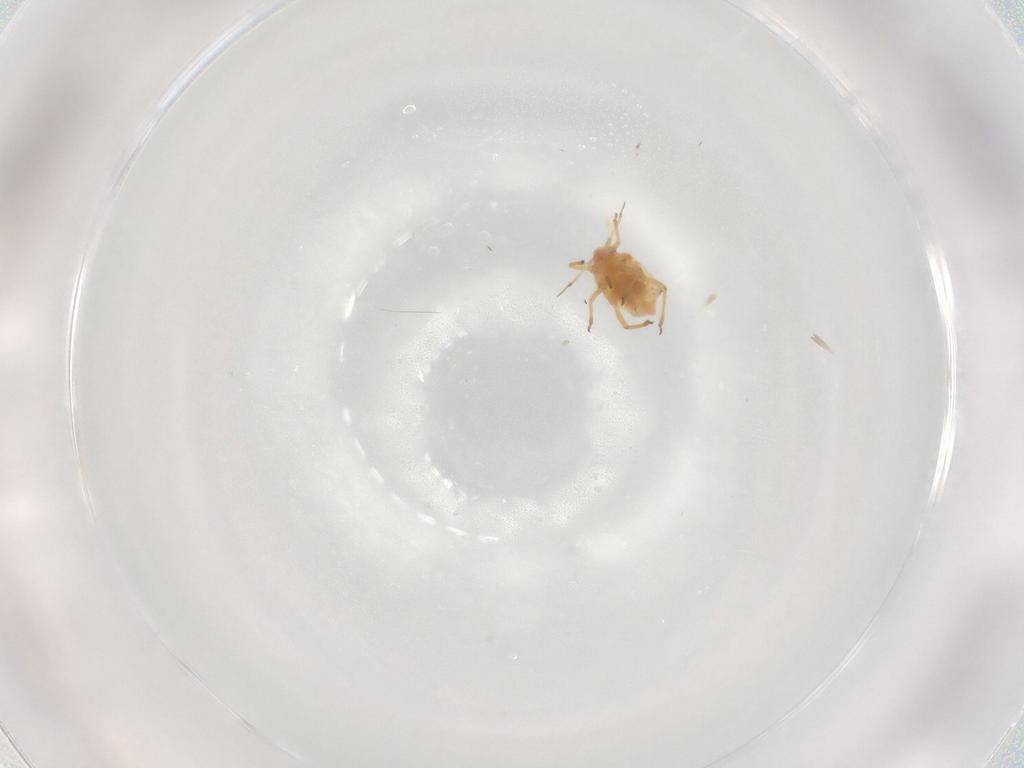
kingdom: Animalia
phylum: Arthropoda
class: Insecta
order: Hemiptera
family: Aphididae
